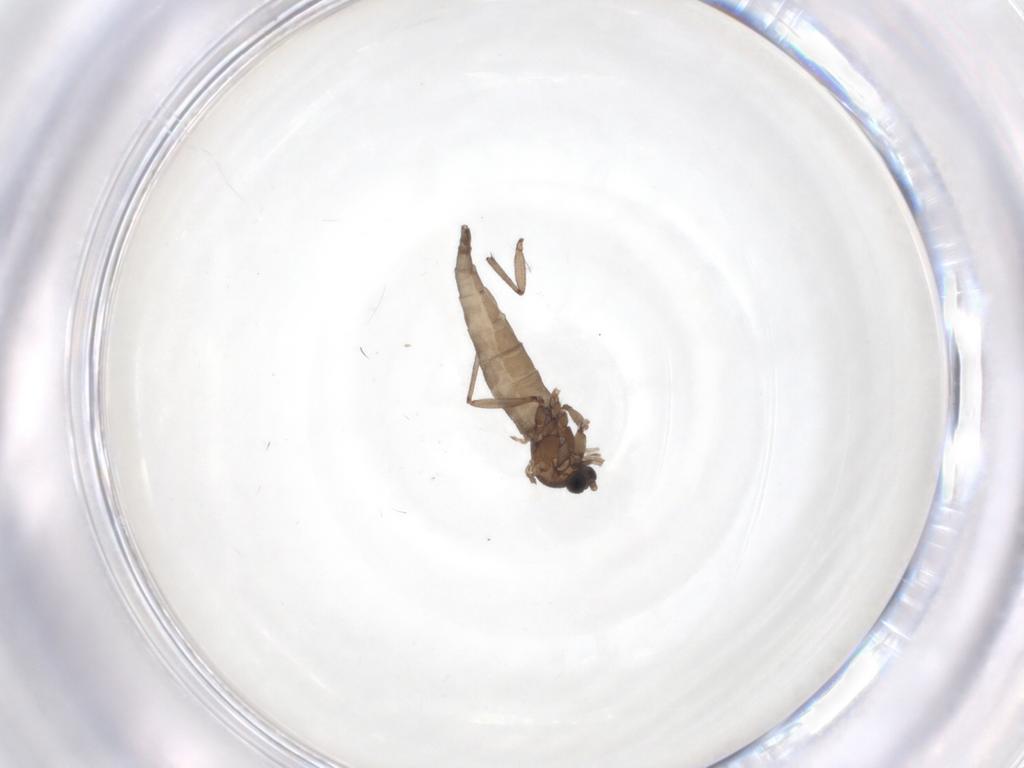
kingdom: Animalia
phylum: Arthropoda
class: Insecta
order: Diptera
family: Sciaridae
